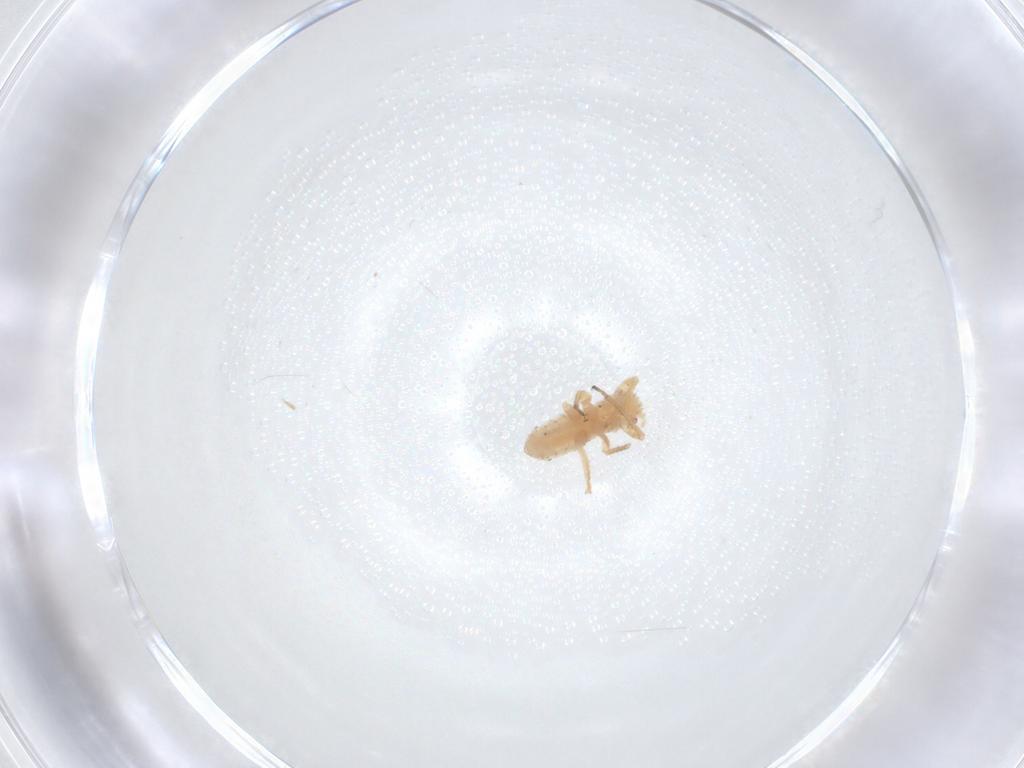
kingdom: Animalia
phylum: Arthropoda
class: Insecta
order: Hemiptera
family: Aphididae
